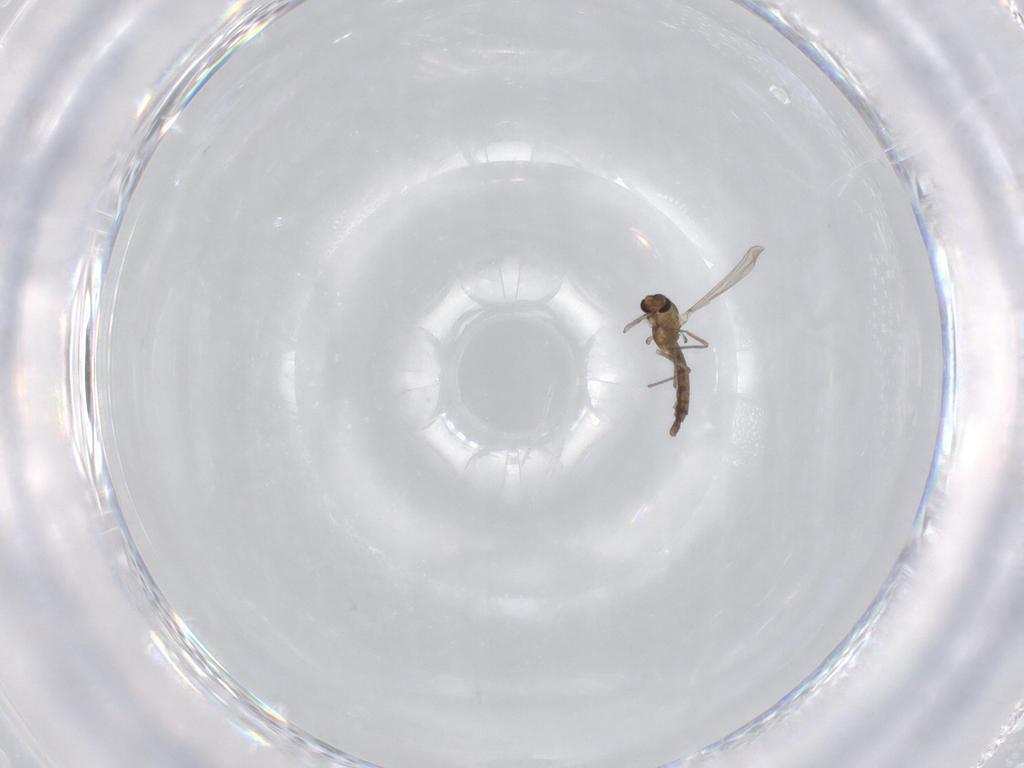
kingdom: Animalia
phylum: Arthropoda
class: Insecta
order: Diptera
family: Chironomidae
